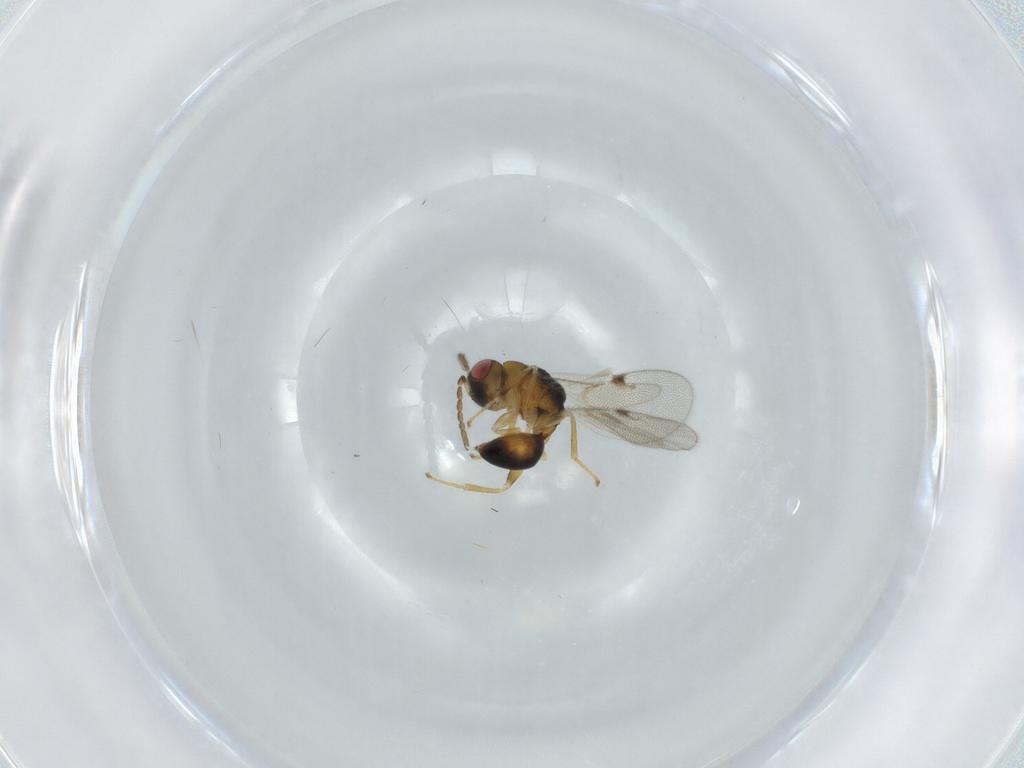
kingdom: Animalia
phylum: Arthropoda
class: Insecta
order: Hymenoptera
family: Eurytomidae
